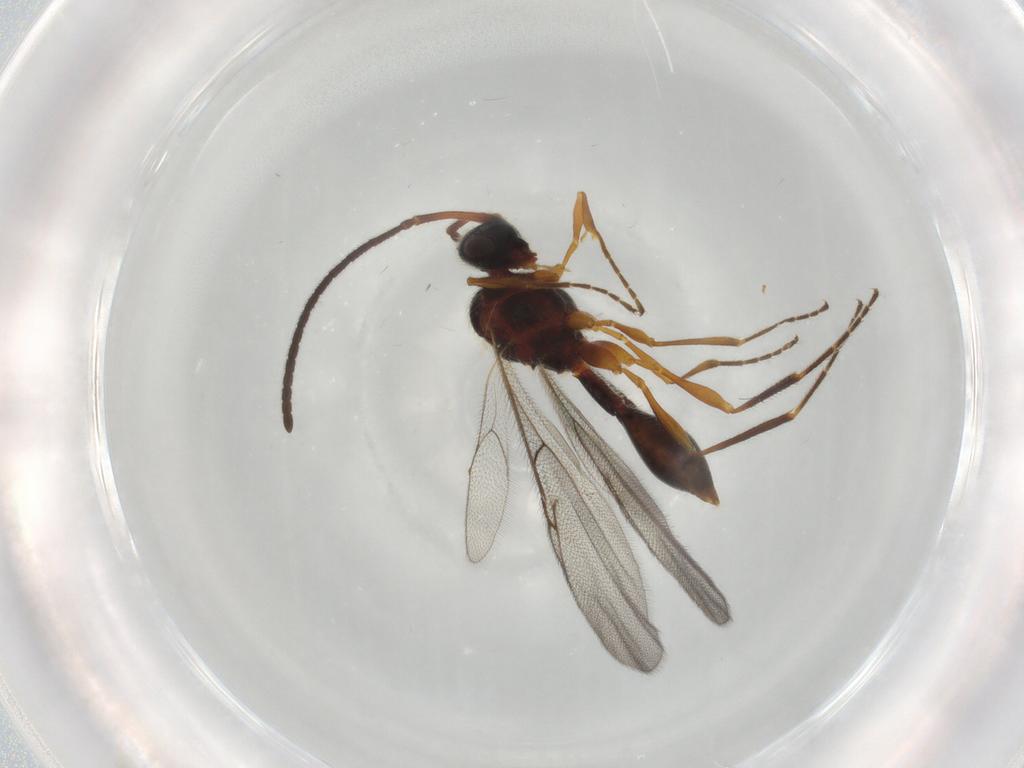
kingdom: Animalia
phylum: Arthropoda
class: Insecta
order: Hymenoptera
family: Diapriidae
